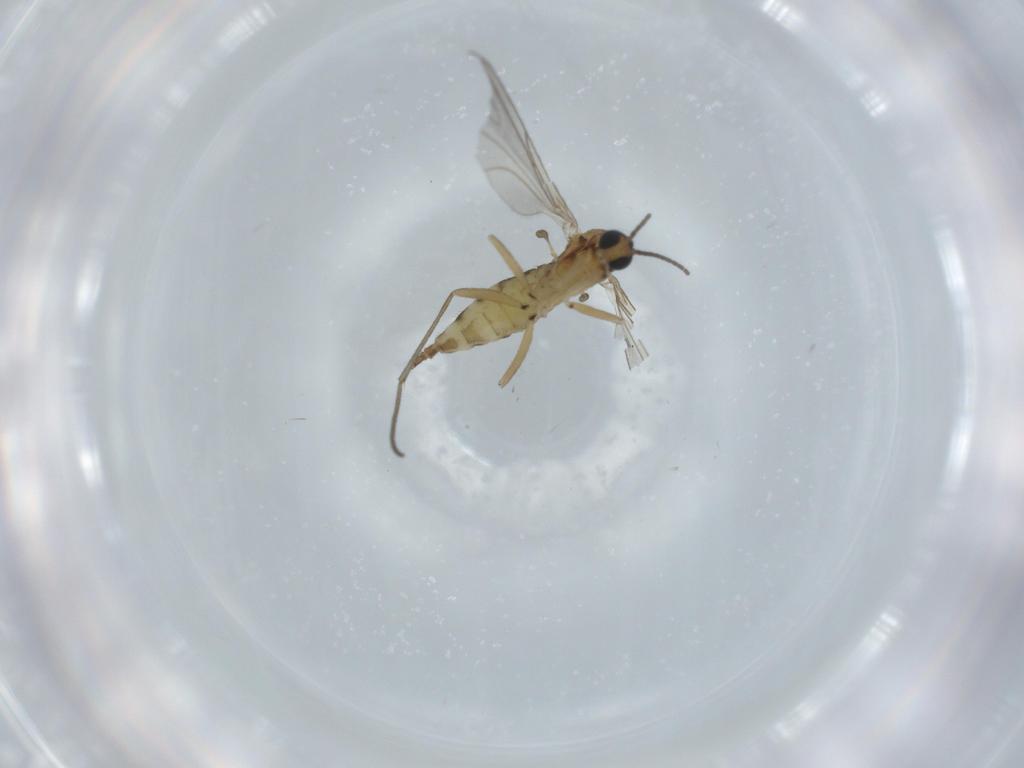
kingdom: Animalia
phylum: Arthropoda
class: Insecta
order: Diptera
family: Sciaridae
